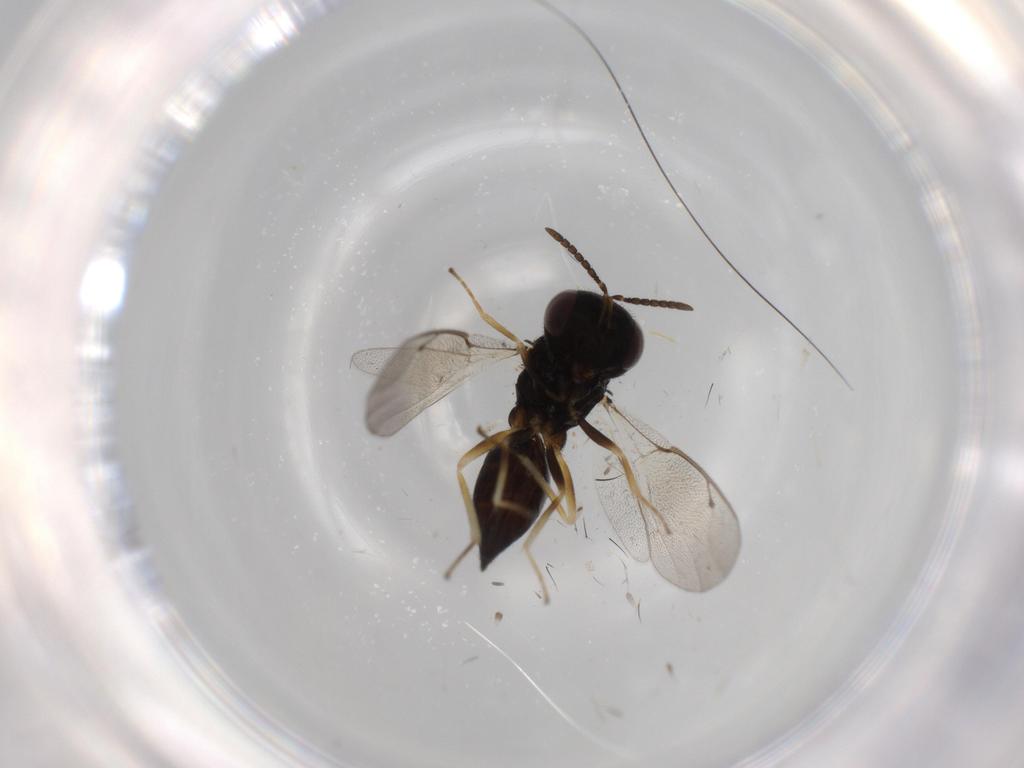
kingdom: Animalia
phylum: Arthropoda
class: Insecta
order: Hymenoptera
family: Pteromalidae
